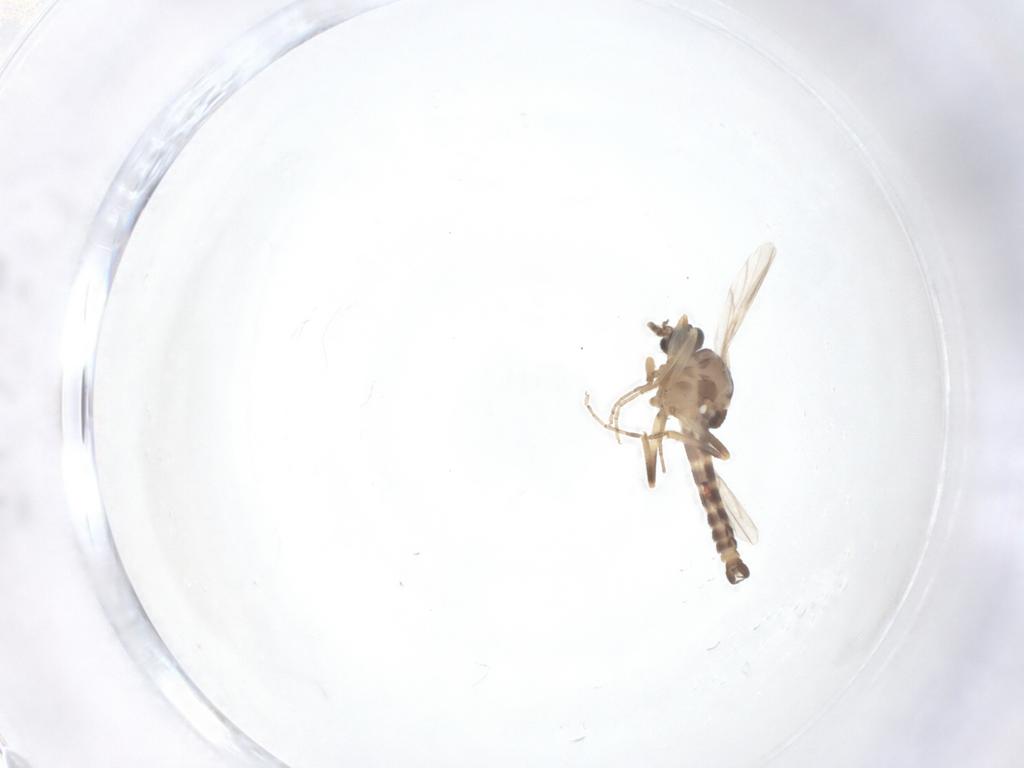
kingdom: Animalia
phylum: Arthropoda
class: Insecta
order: Diptera
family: Ceratopogonidae
